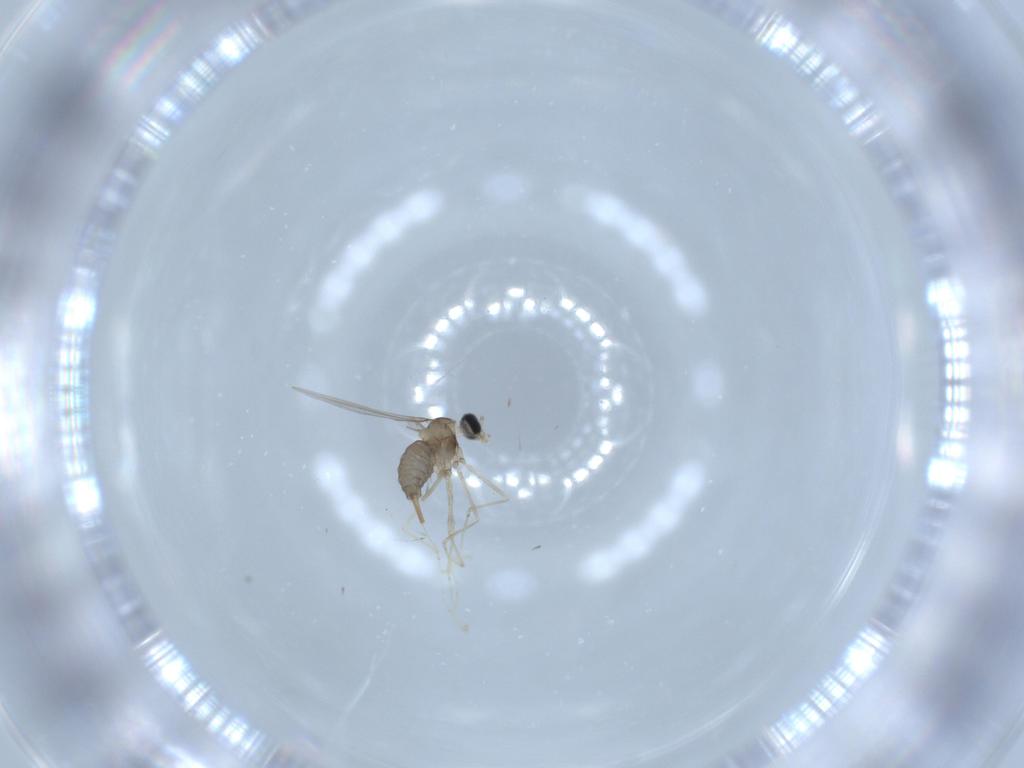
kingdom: Animalia
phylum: Arthropoda
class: Insecta
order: Diptera
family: Cecidomyiidae
